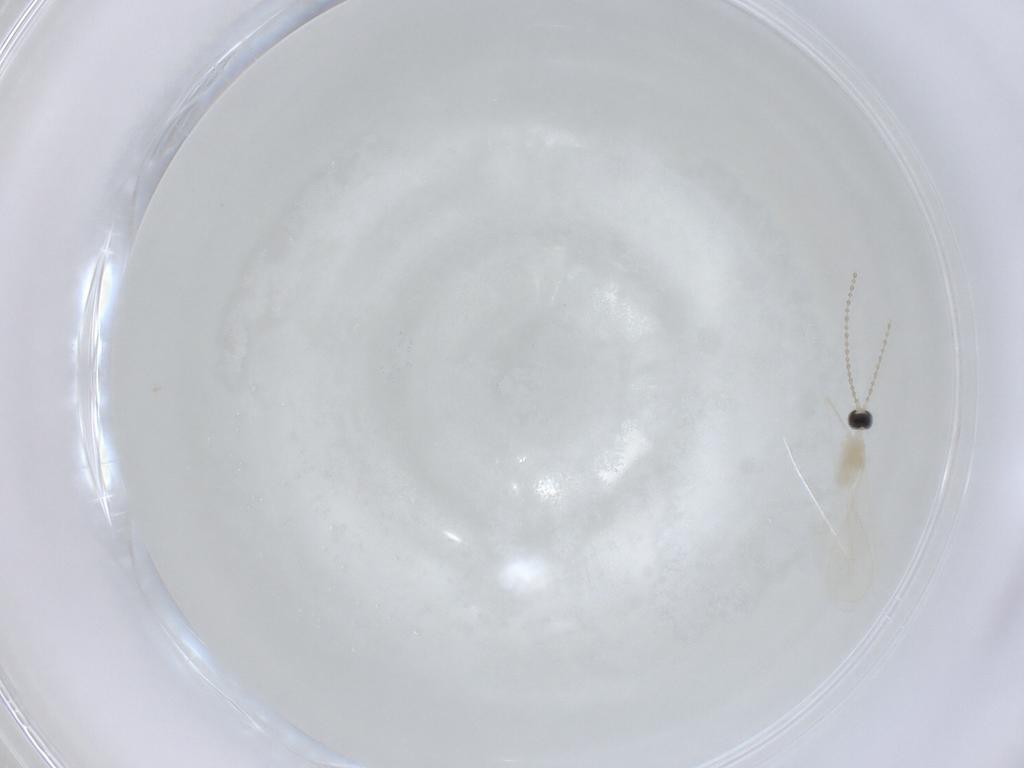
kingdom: Animalia
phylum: Arthropoda
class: Insecta
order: Diptera
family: Cecidomyiidae
